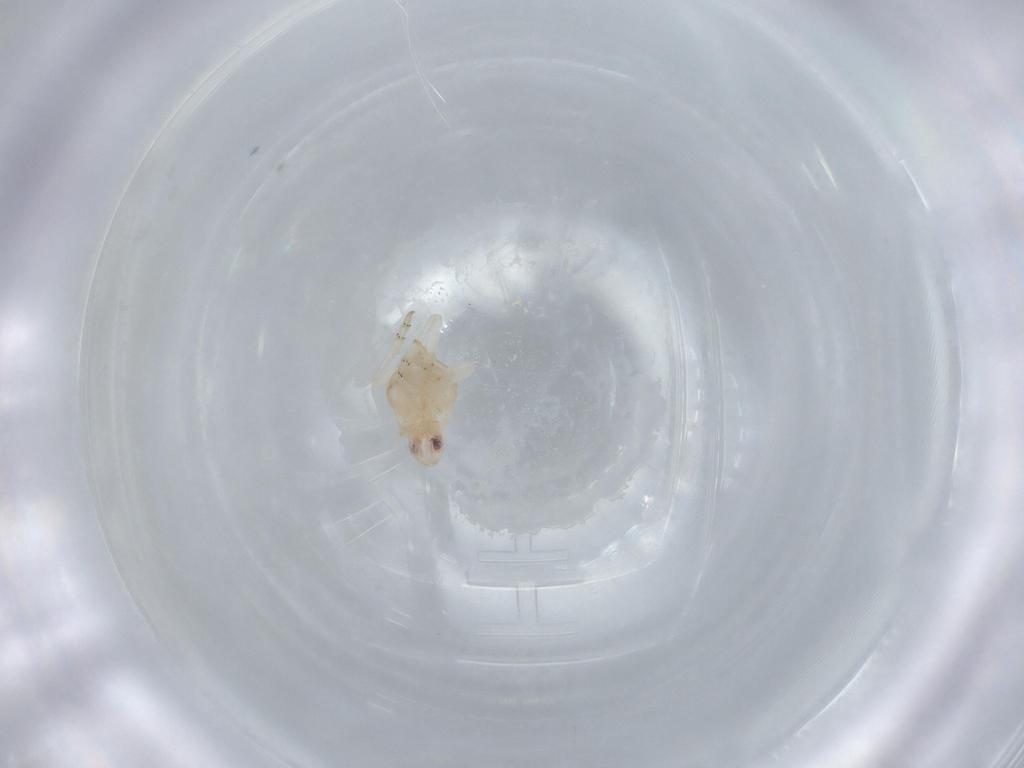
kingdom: Animalia
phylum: Arthropoda
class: Insecta
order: Hemiptera
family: Flatidae
